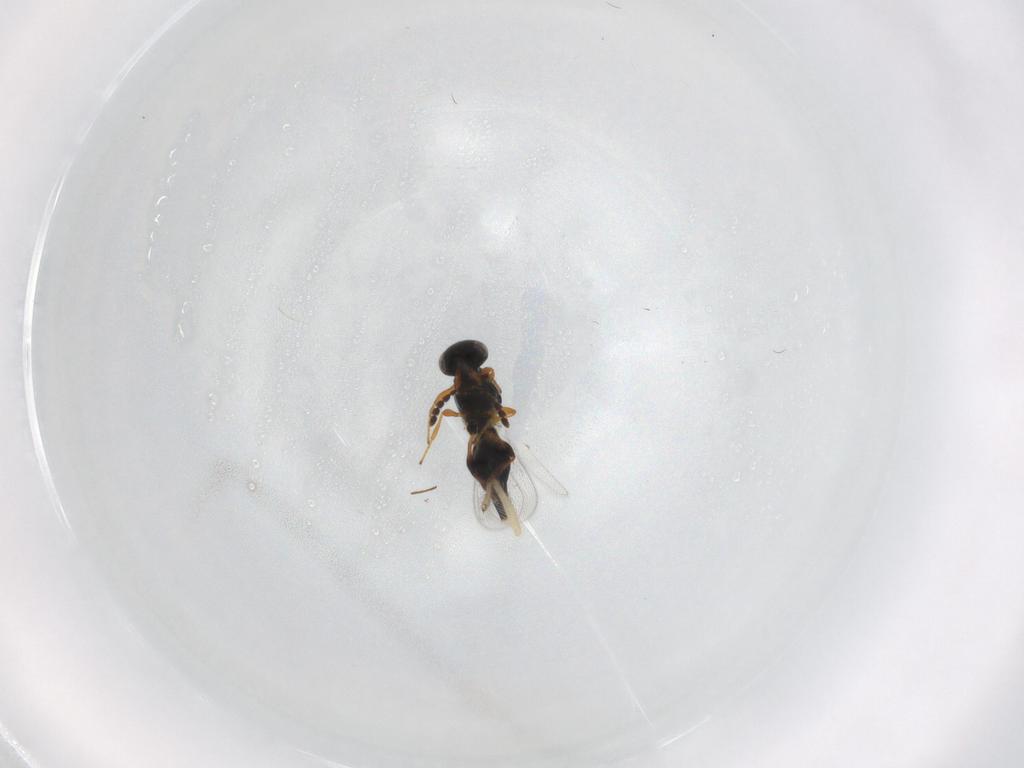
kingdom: Animalia
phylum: Arthropoda
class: Insecta
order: Hymenoptera
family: Platygastridae
